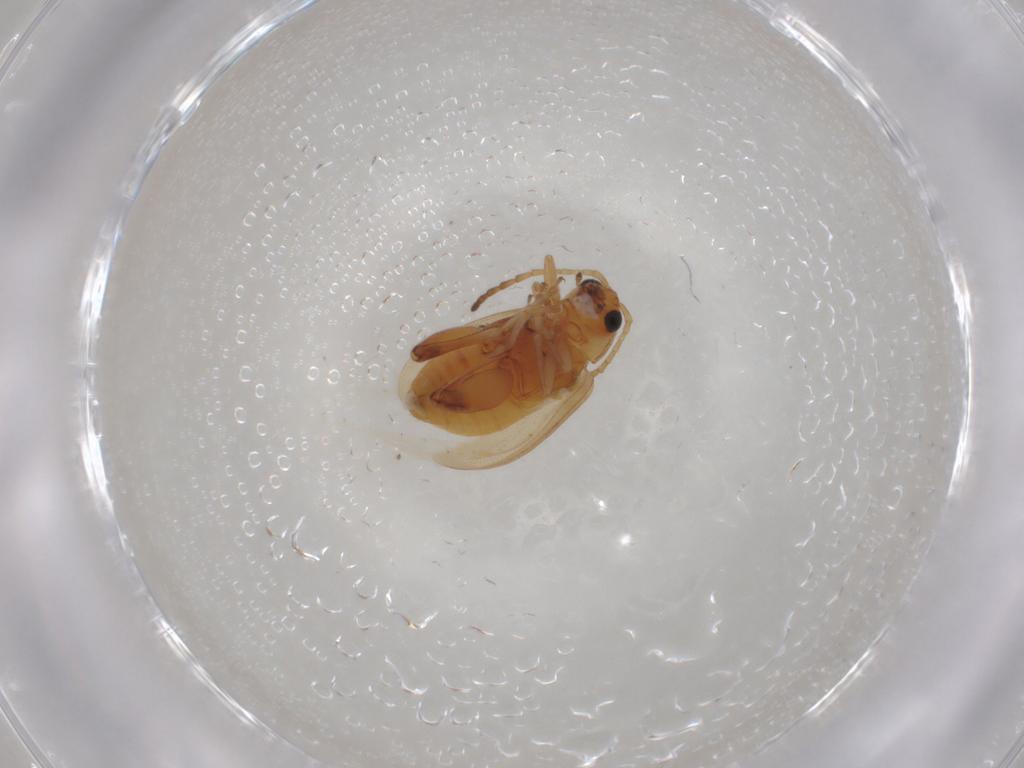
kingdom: Animalia
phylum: Arthropoda
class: Insecta
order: Coleoptera
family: Chrysomelidae
